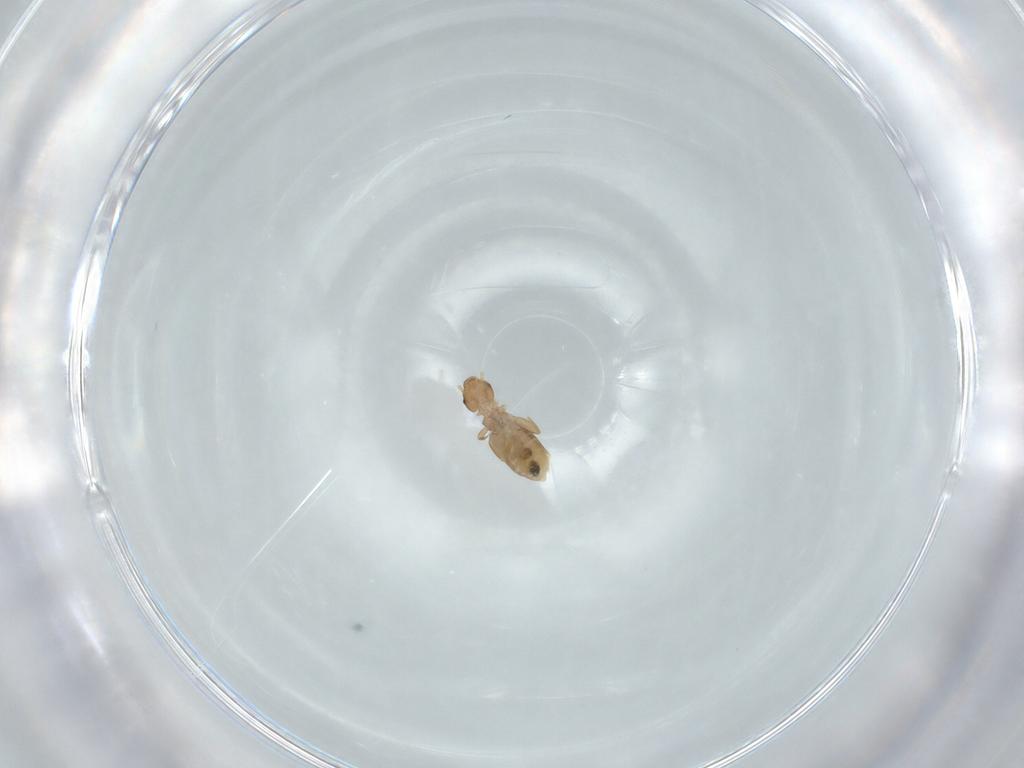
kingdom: Animalia
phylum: Arthropoda
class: Insecta
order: Psocodea
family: Liposcelididae
